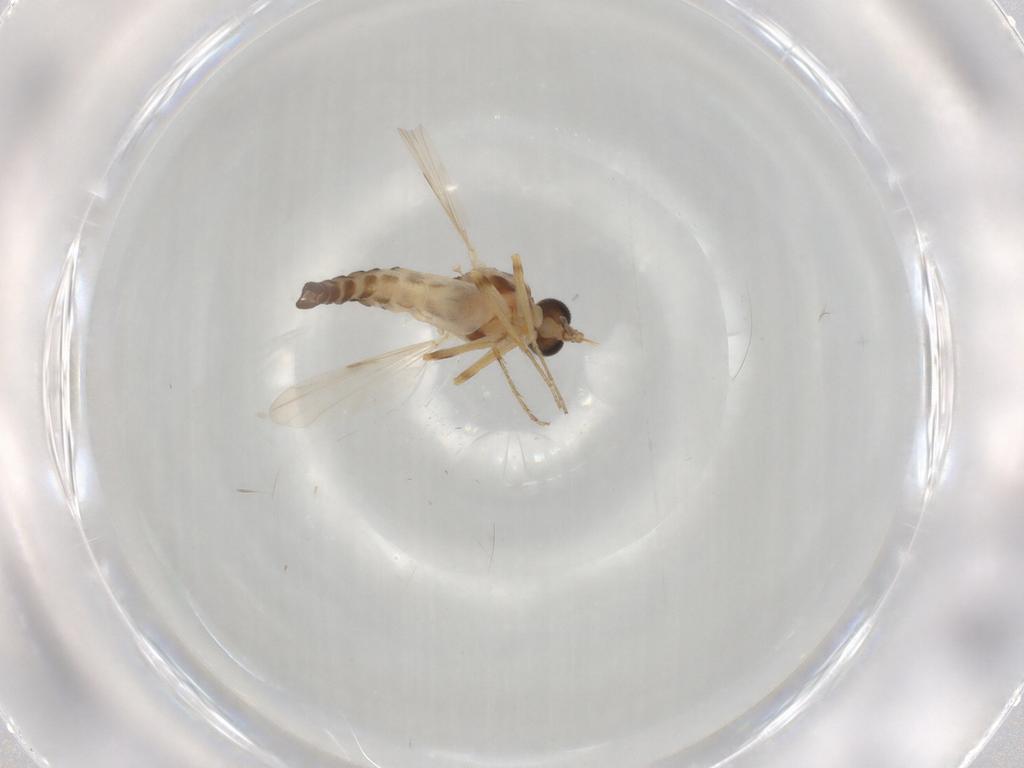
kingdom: Animalia
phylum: Arthropoda
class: Insecta
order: Diptera
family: Ceratopogonidae
